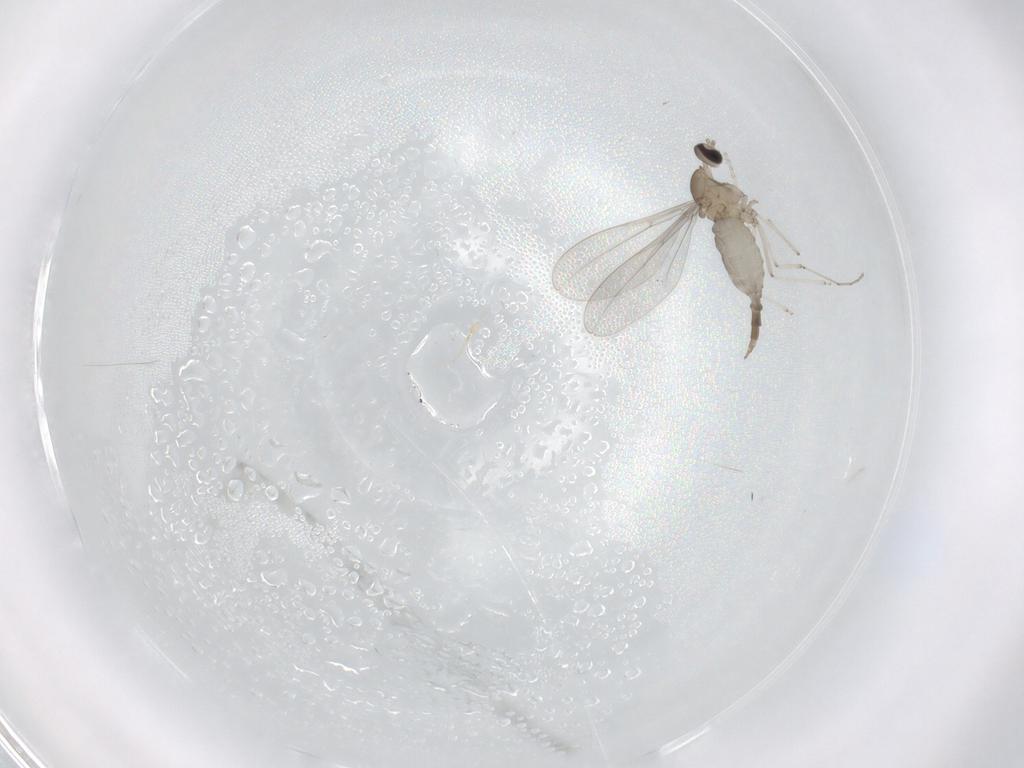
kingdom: Animalia
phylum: Arthropoda
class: Insecta
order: Diptera
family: Cecidomyiidae
